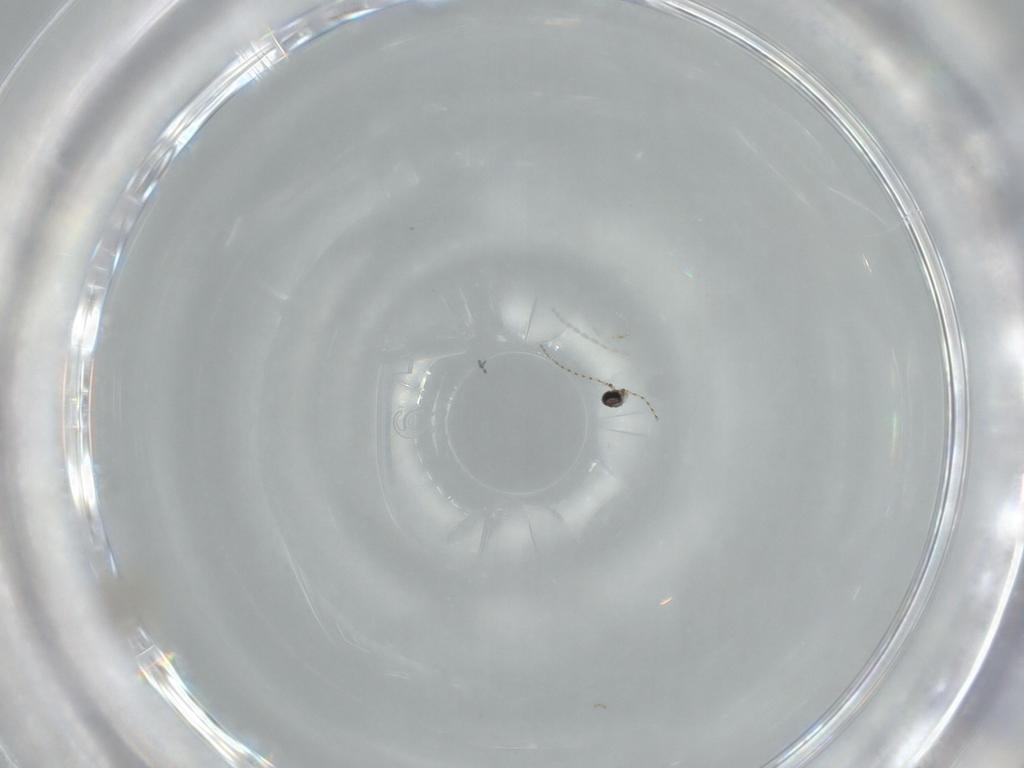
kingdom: Animalia
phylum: Arthropoda
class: Insecta
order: Diptera
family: Cecidomyiidae
